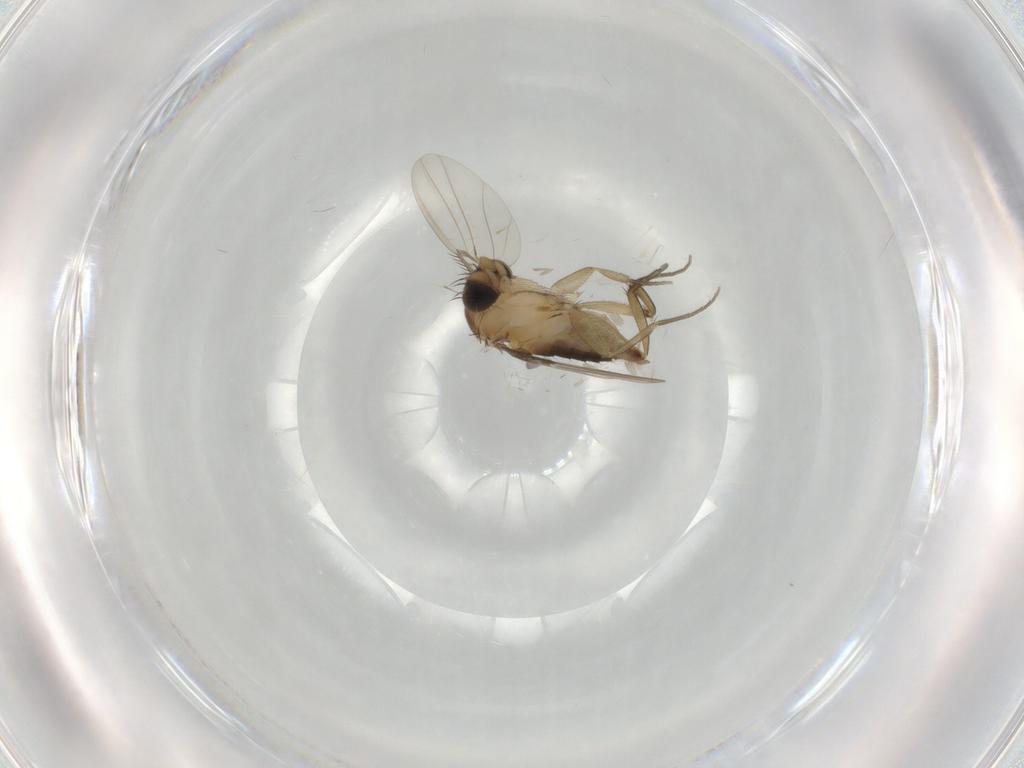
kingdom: Animalia
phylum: Arthropoda
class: Insecta
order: Diptera
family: Phoridae
